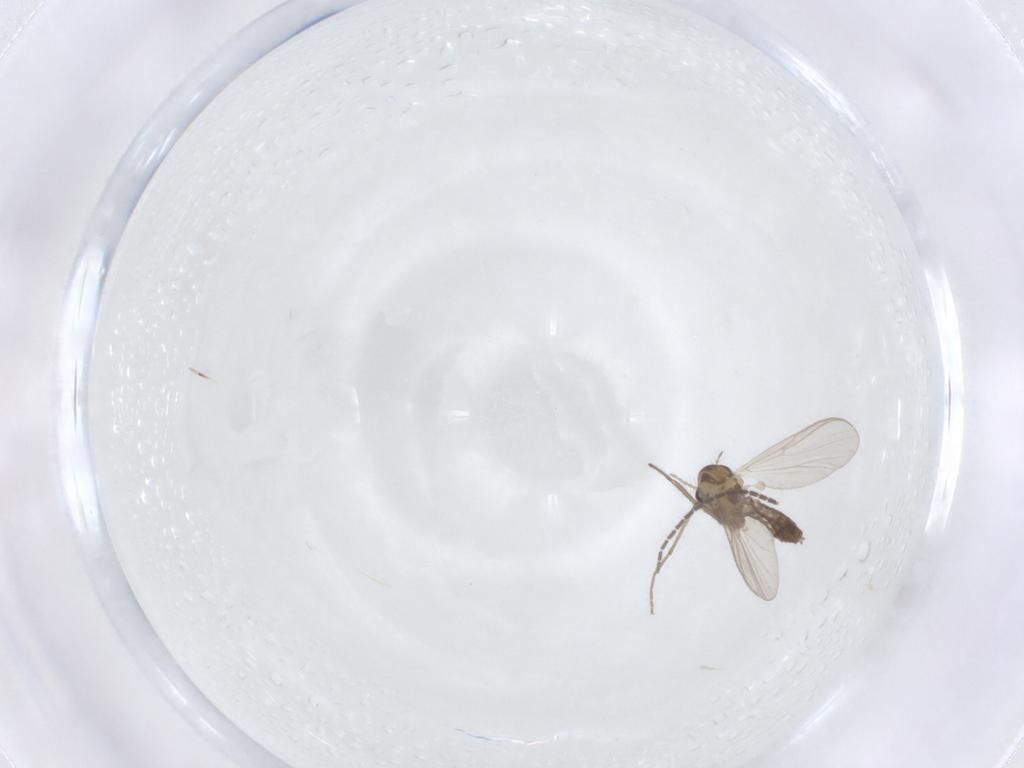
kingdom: Animalia
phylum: Arthropoda
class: Insecta
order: Diptera
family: Chironomidae
